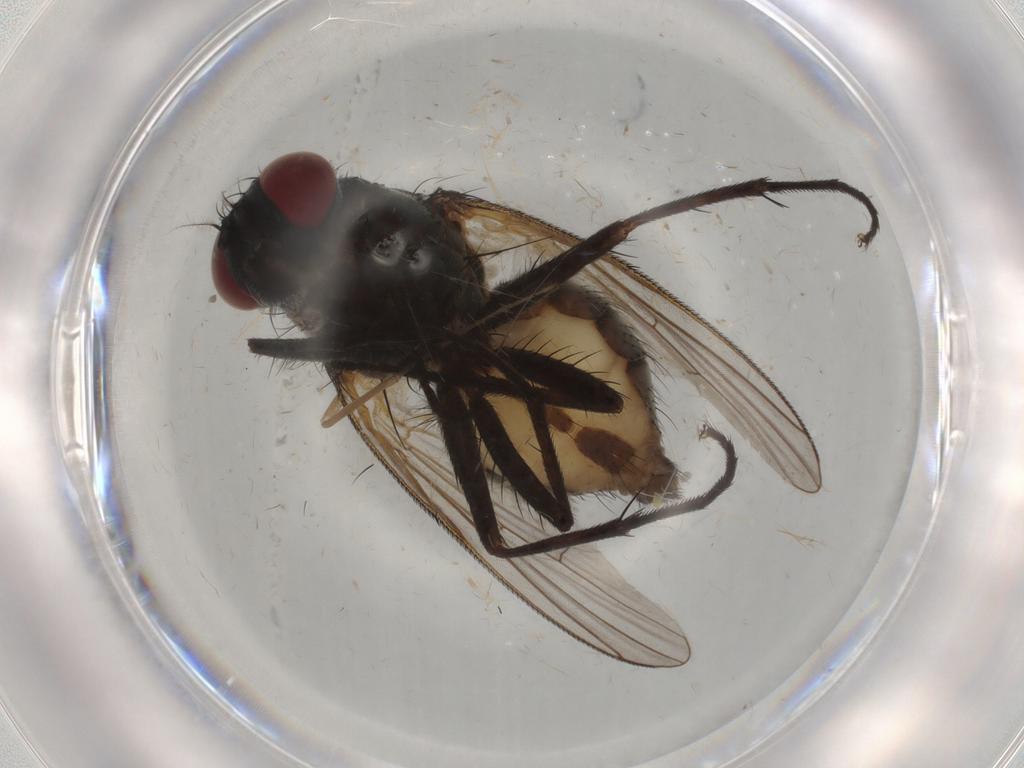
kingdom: Animalia
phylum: Arthropoda
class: Insecta
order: Diptera
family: Muscidae
